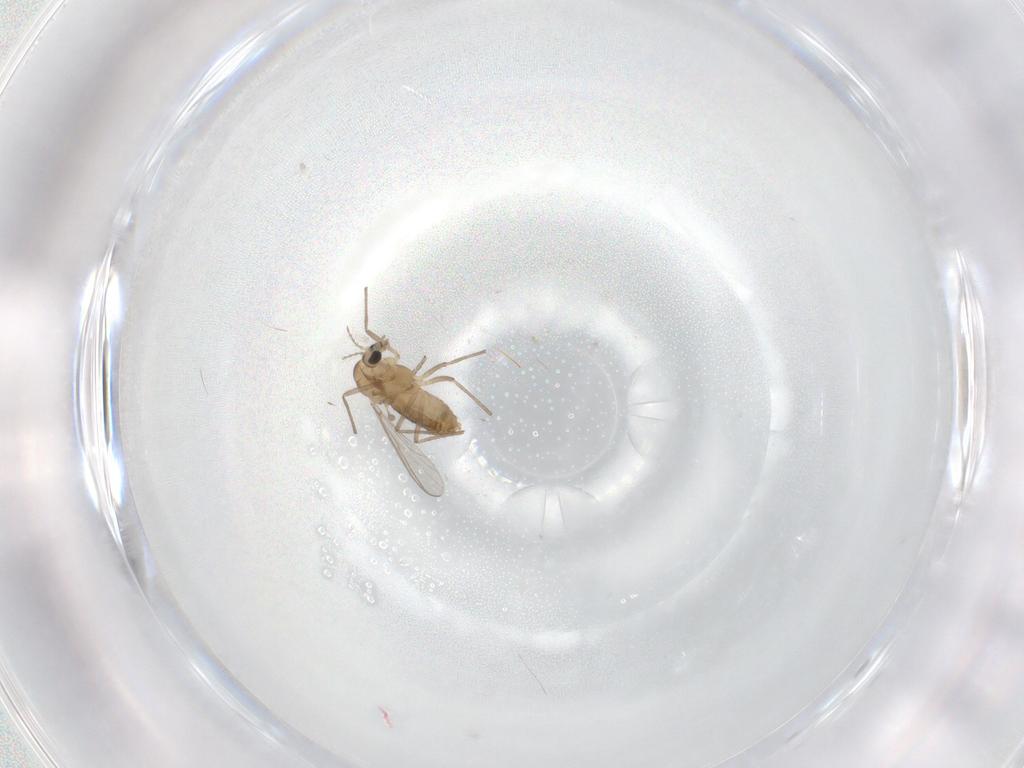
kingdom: Animalia
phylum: Arthropoda
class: Insecta
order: Diptera
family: Chironomidae
